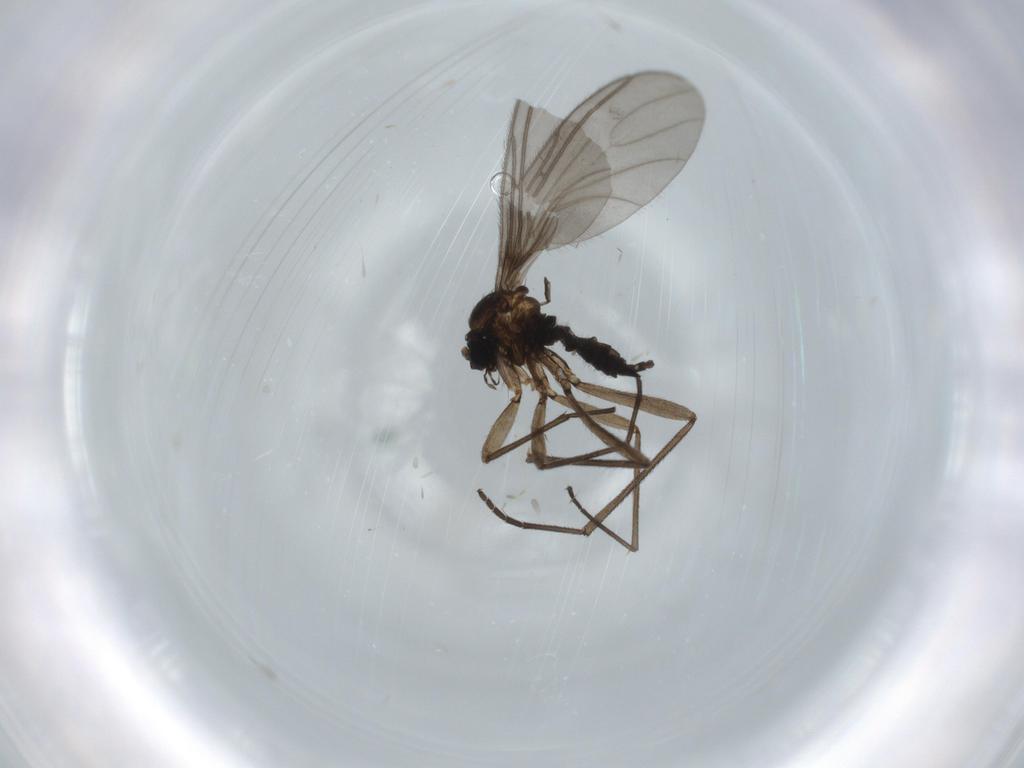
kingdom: Animalia
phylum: Arthropoda
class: Insecta
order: Diptera
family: Sciaridae
